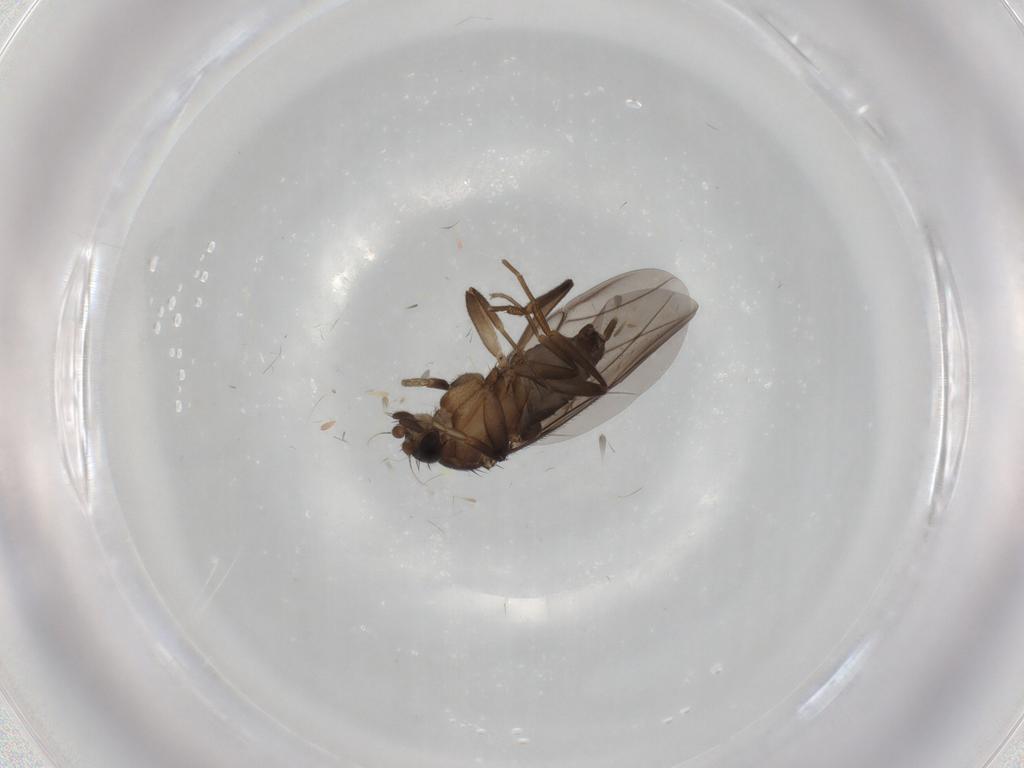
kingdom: Animalia
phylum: Arthropoda
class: Insecta
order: Diptera
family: Phoridae
